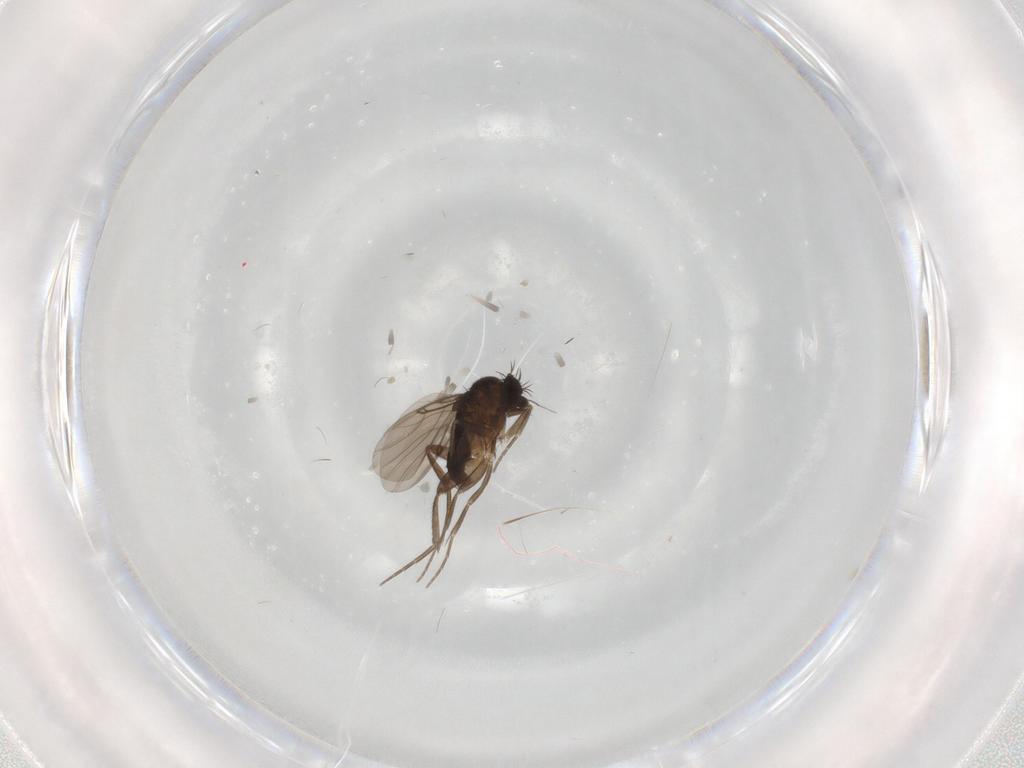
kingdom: Animalia
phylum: Arthropoda
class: Insecta
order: Diptera
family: Phoridae
